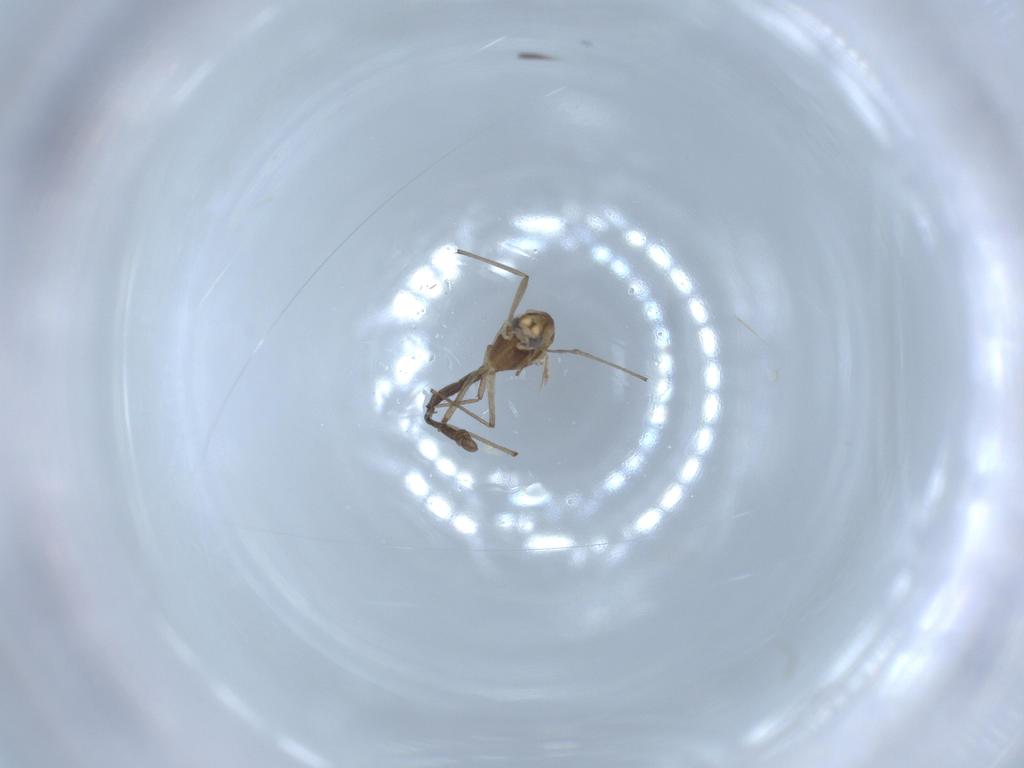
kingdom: Animalia
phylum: Arthropoda
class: Insecta
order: Diptera
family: Chironomidae
